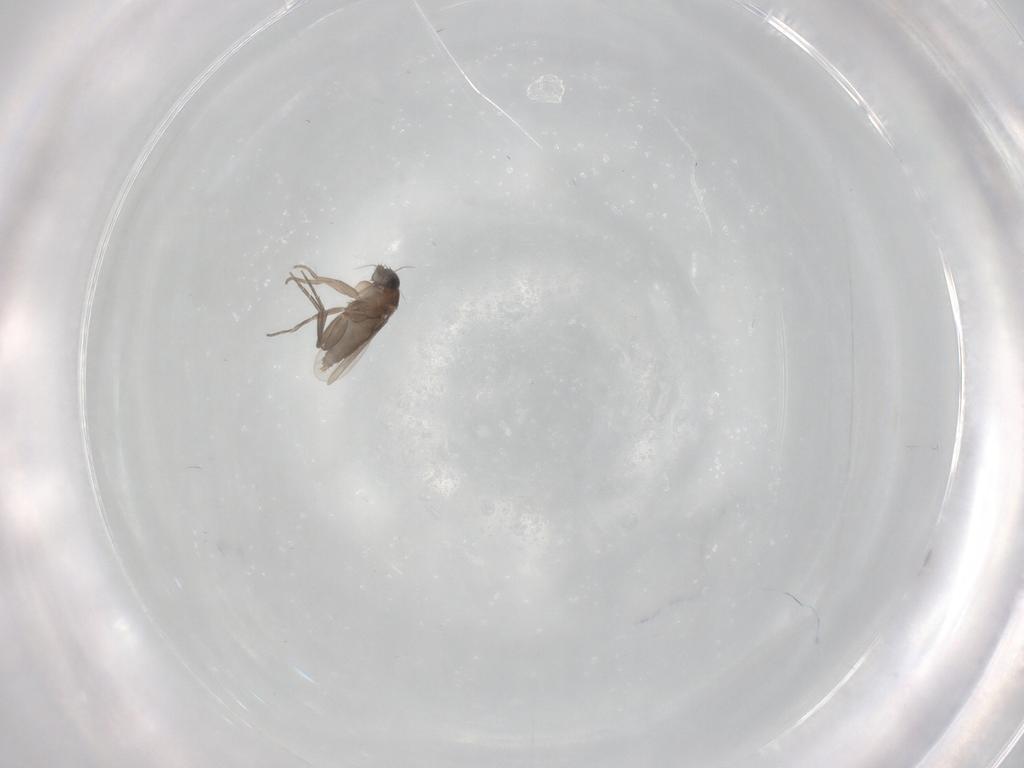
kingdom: Animalia
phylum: Arthropoda
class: Insecta
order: Diptera
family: Phoridae
